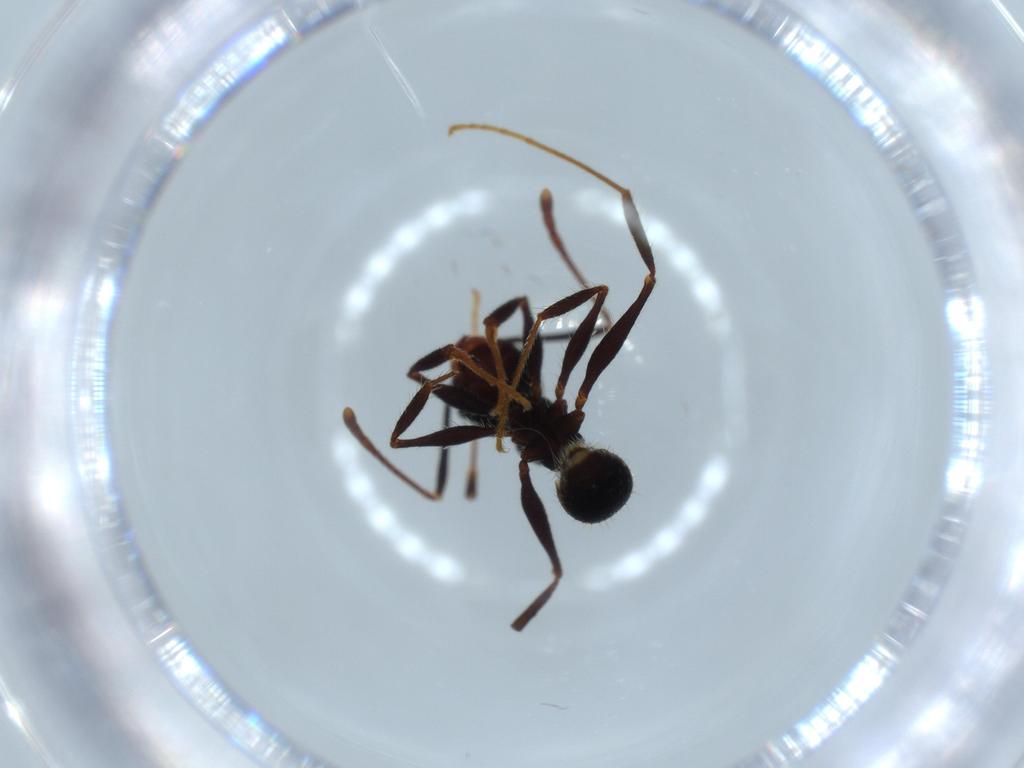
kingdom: Animalia
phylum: Arthropoda
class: Insecta
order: Hymenoptera
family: Formicidae
